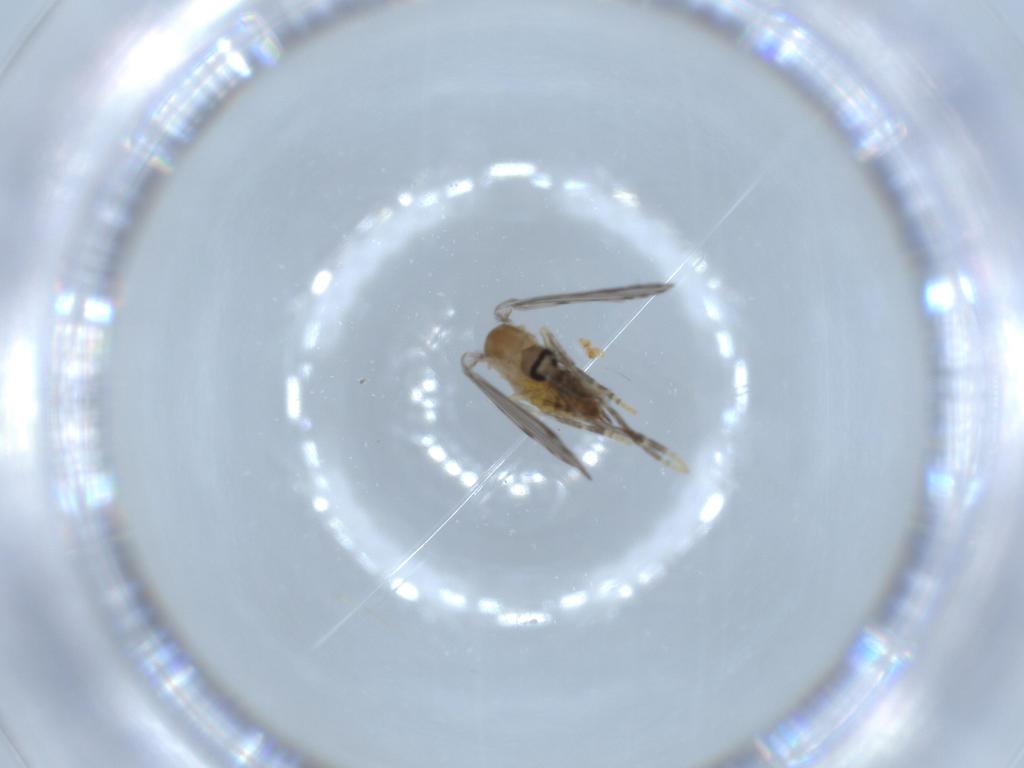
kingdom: Animalia
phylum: Arthropoda
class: Insecta
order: Diptera
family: Psychodidae
